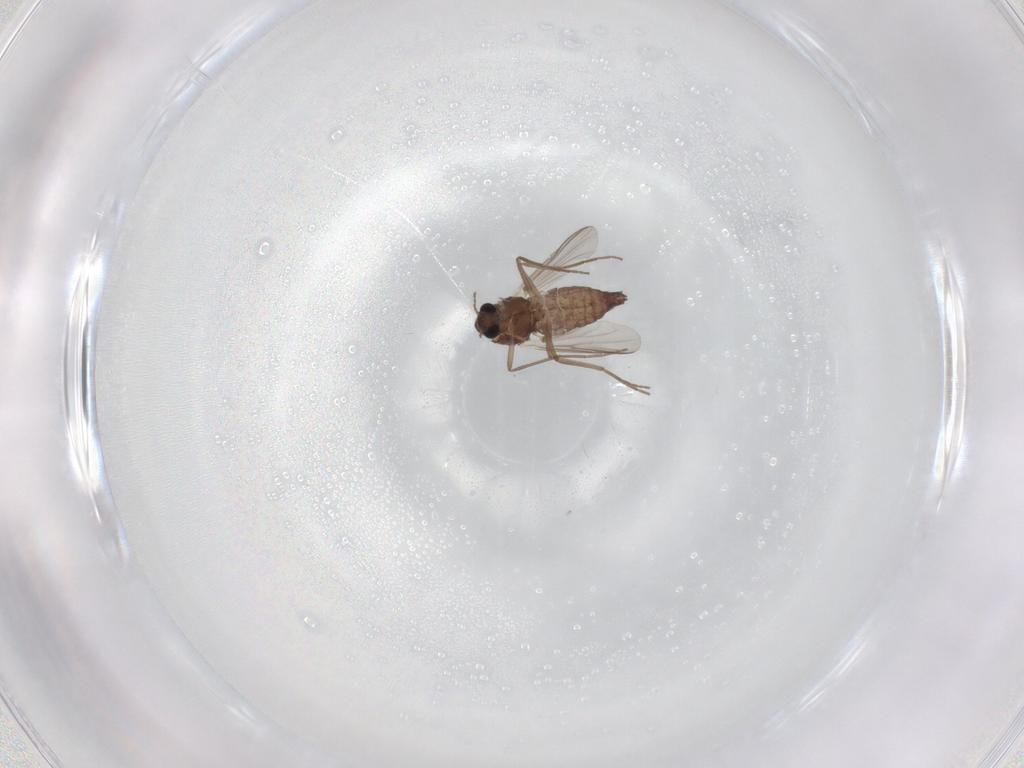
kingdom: Animalia
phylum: Arthropoda
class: Insecta
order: Diptera
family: Chironomidae
